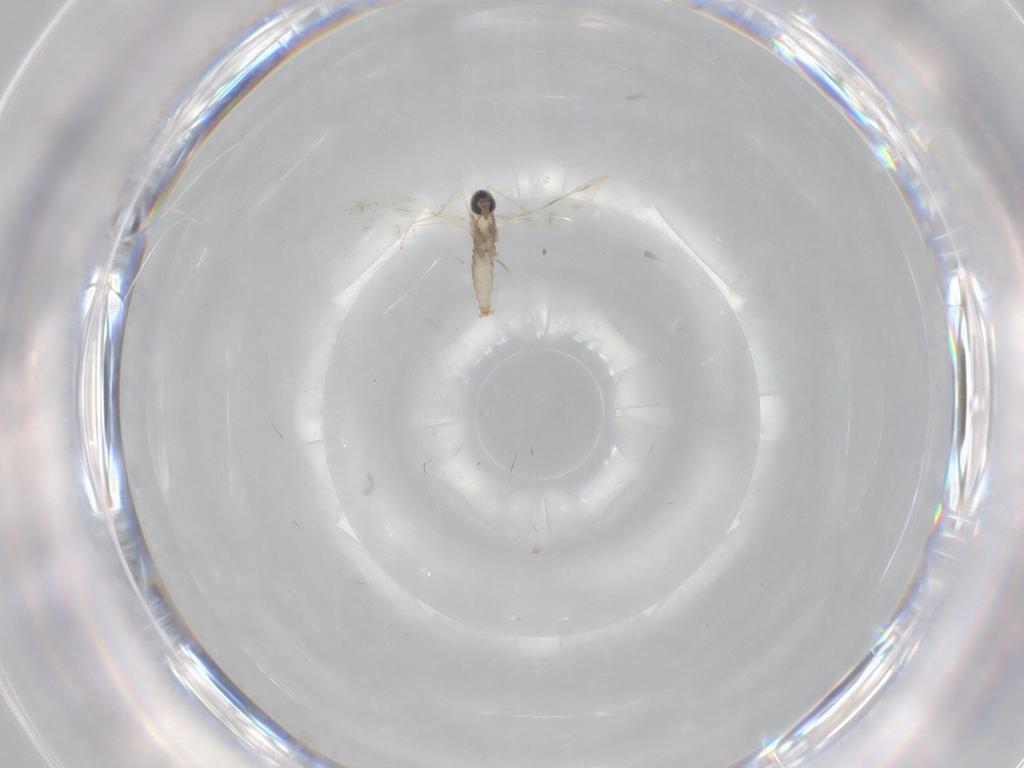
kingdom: Animalia
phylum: Arthropoda
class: Insecta
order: Diptera
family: Tabanidae
